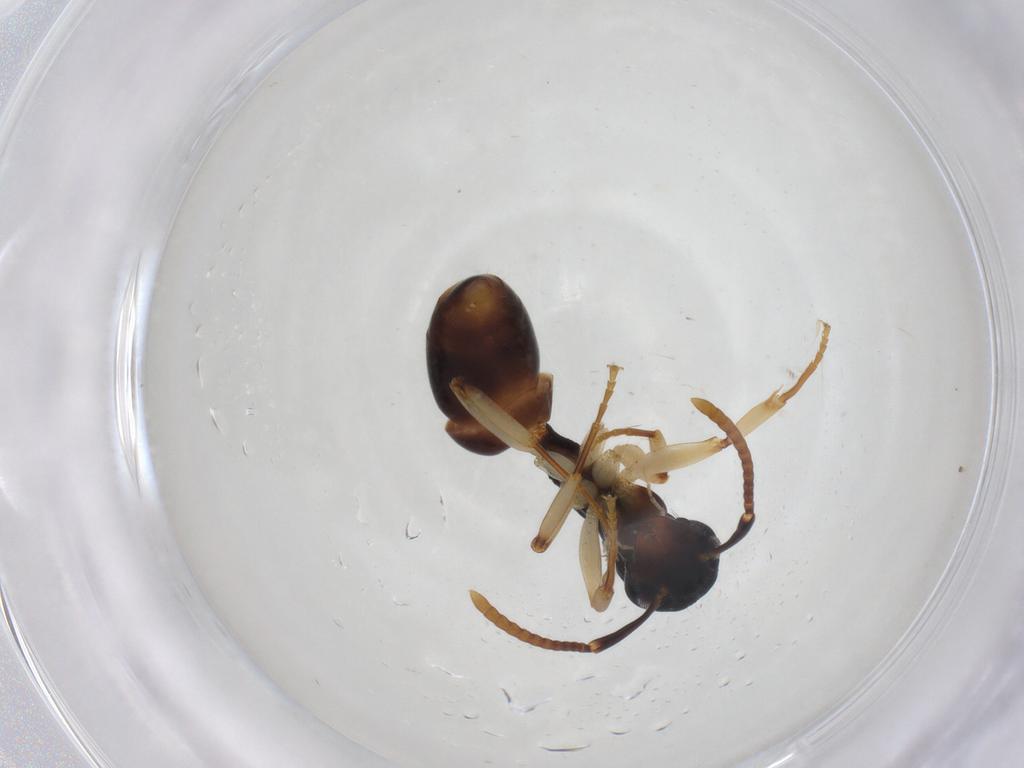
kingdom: Animalia
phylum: Arthropoda
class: Insecta
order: Hymenoptera
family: Formicidae
